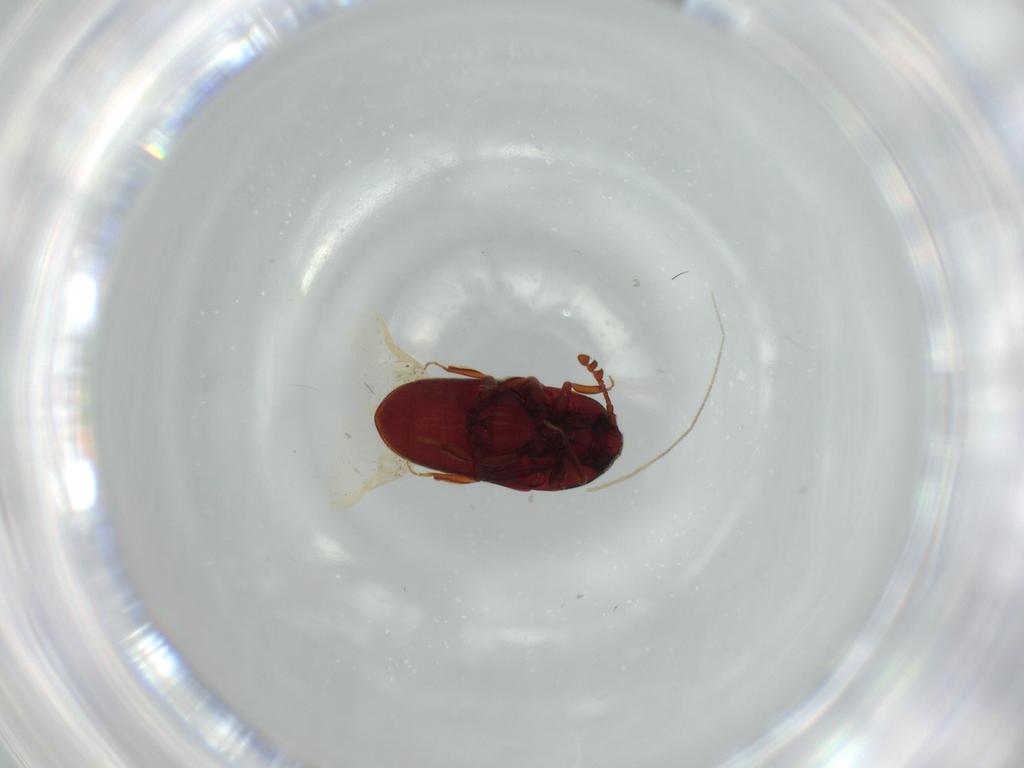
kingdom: Animalia
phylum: Arthropoda
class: Insecta
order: Coleoptera
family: Throscidae
